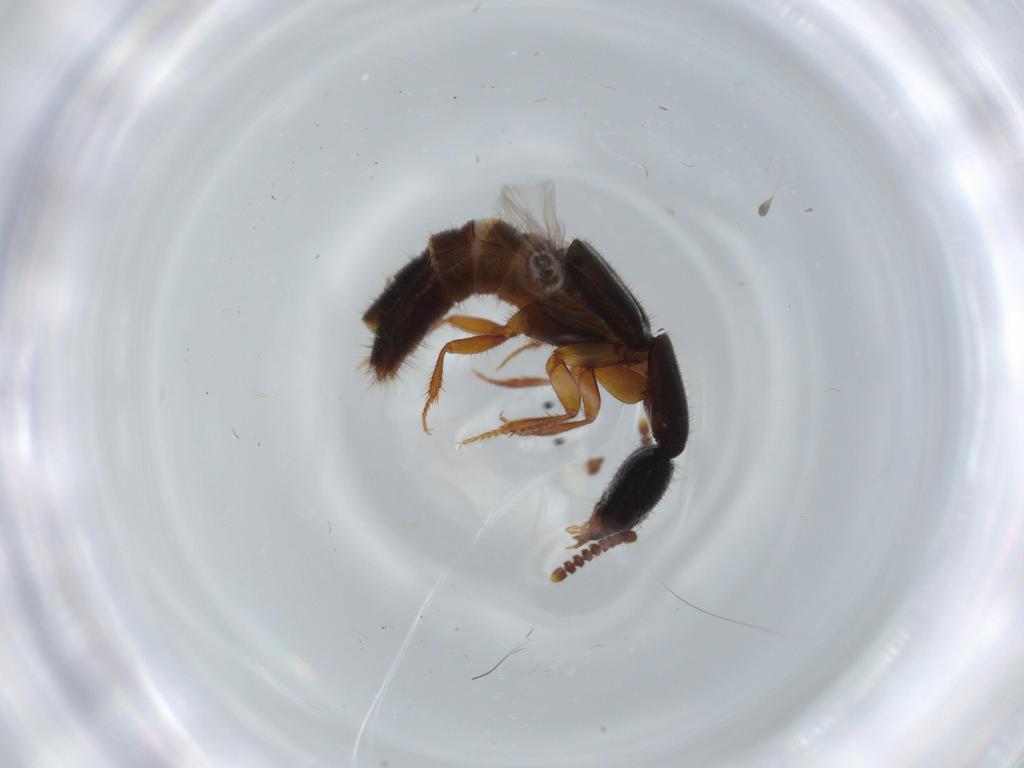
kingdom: Animalia
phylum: Arthropoda
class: Insecta
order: Coleoptera
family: Staphylinidae
